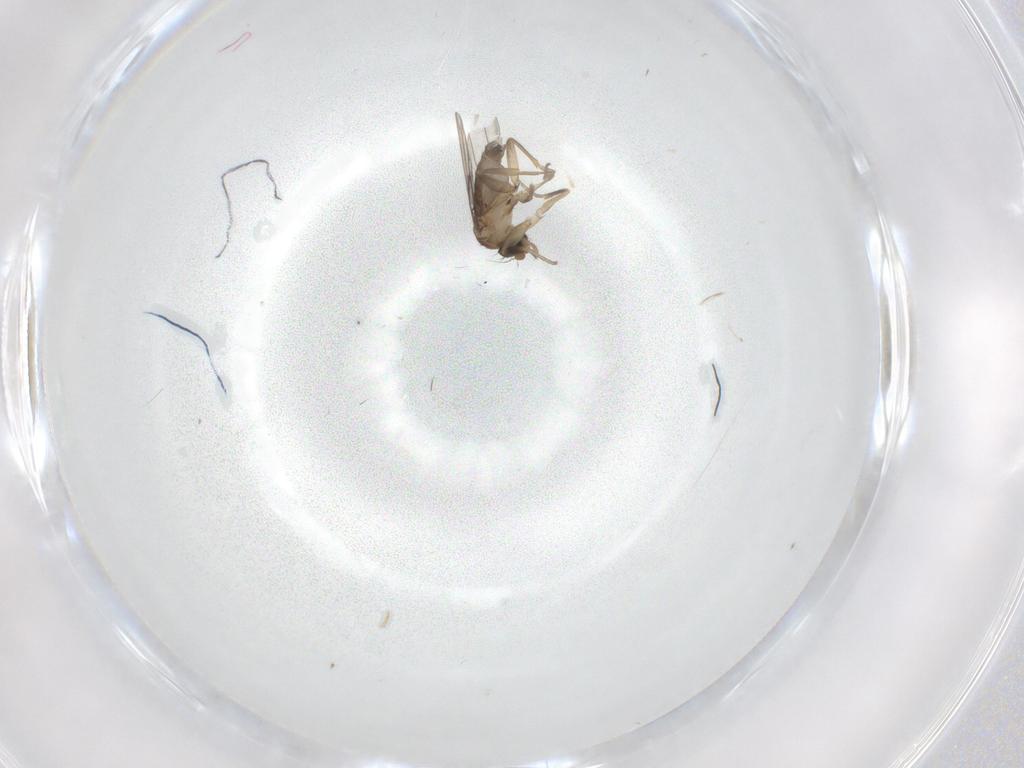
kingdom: Animalia
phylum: Arthropoda
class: Insecta
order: Diptera
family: Phoridae
